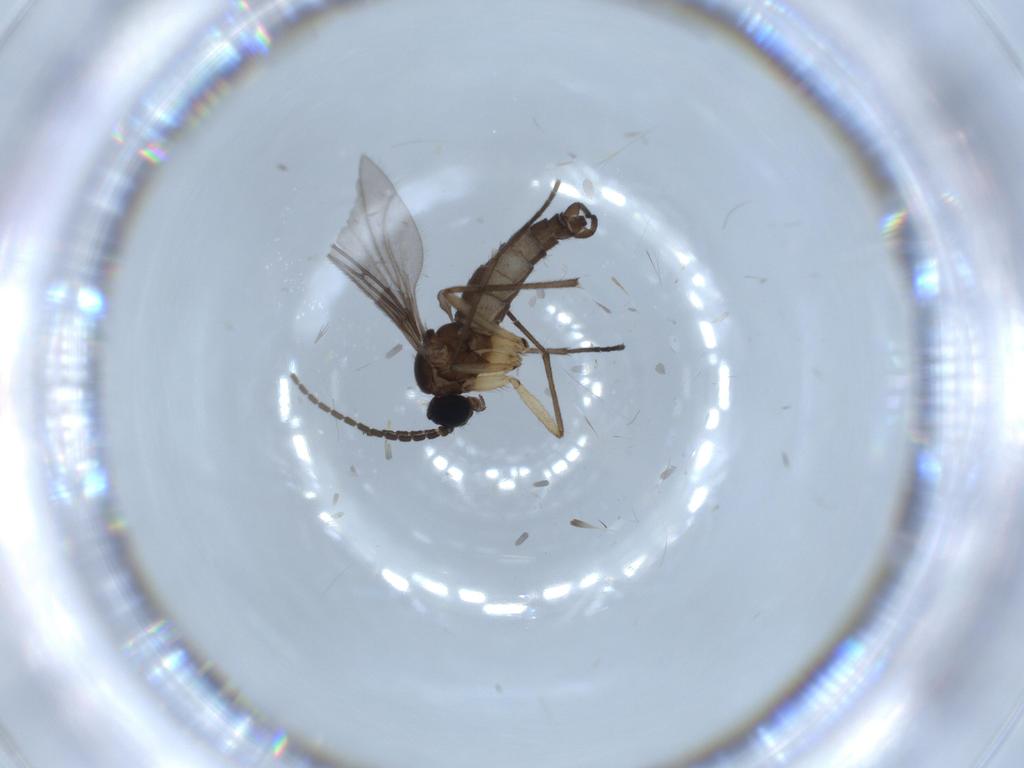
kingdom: Animalia
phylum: Arthropoda
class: Insecta
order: Diptera
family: Sciaridae
